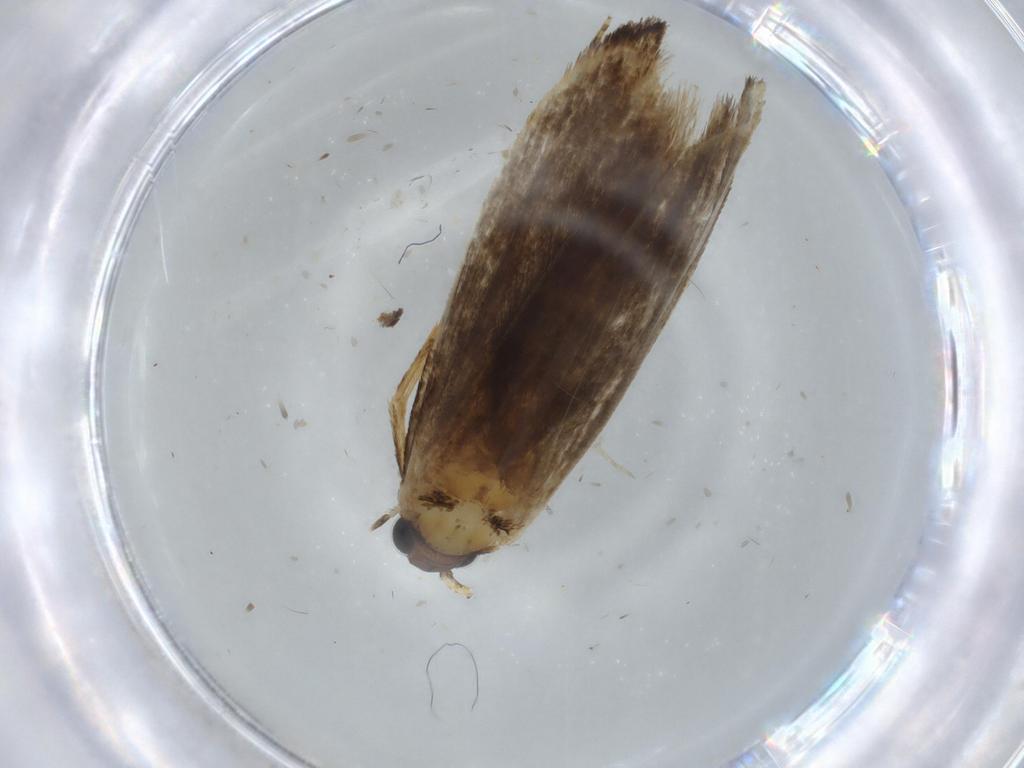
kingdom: Animalia
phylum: Arthropoda
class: Insecta
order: Lepidoptera
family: Tineidae
